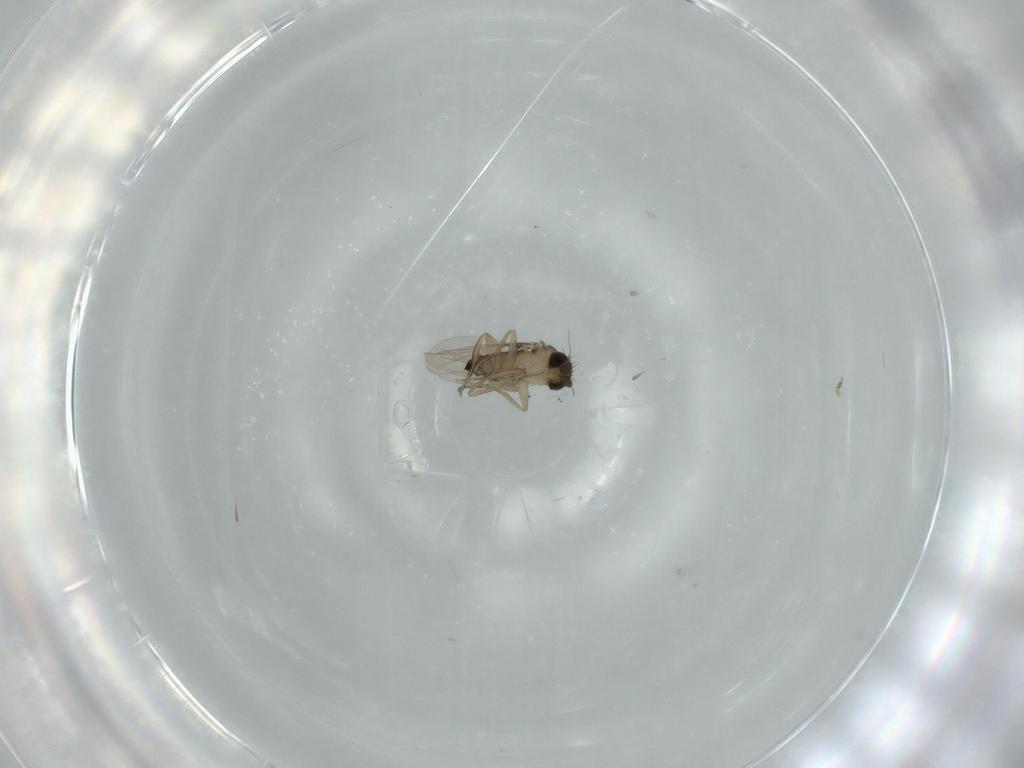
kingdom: Animalia
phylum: Arthropoda
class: Insecta
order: Diptera
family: Phoridae
